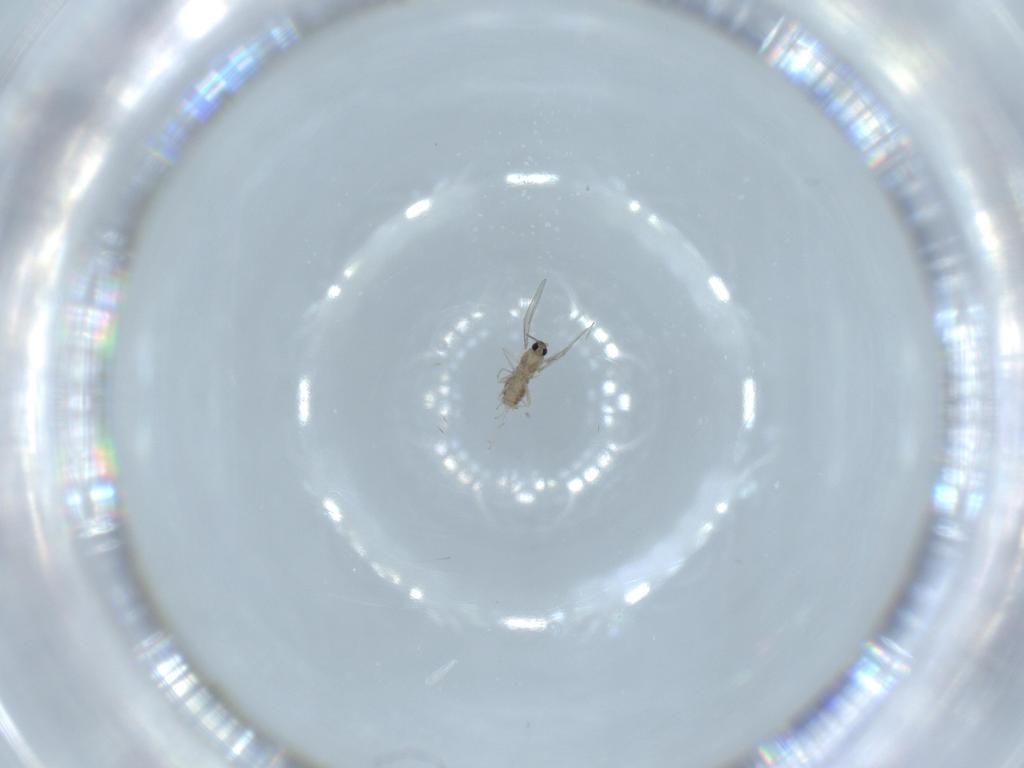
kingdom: Animalia
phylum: Arthropoda
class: Insecta
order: Diptera
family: Cecidomyiidae
